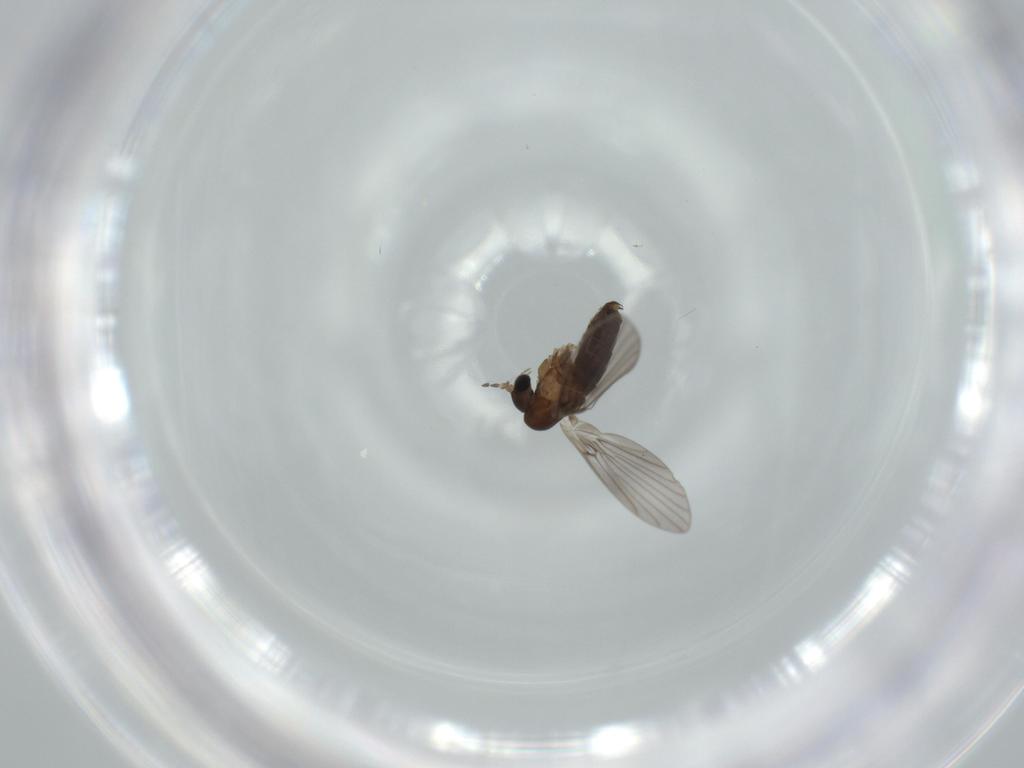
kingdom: Animalia
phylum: Arthropoda
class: Insecta
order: Diptera
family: Psychodidae
